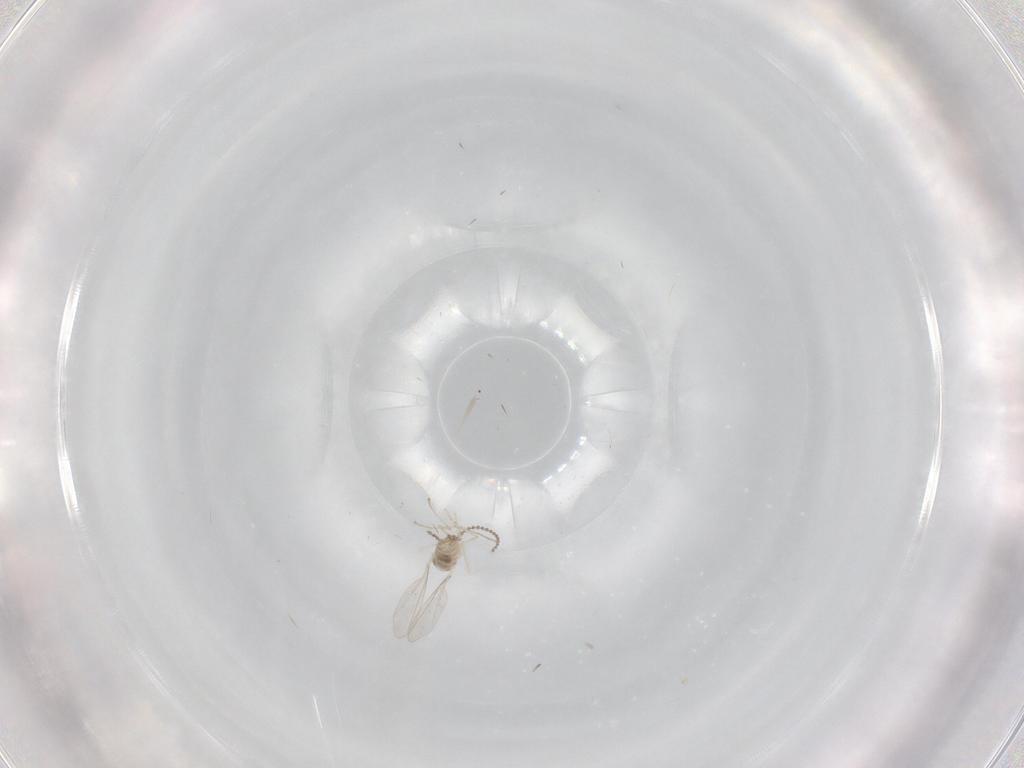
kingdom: Animalia
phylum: Arthropoda
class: Insecta
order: Diptera
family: Cecidomyiidae
